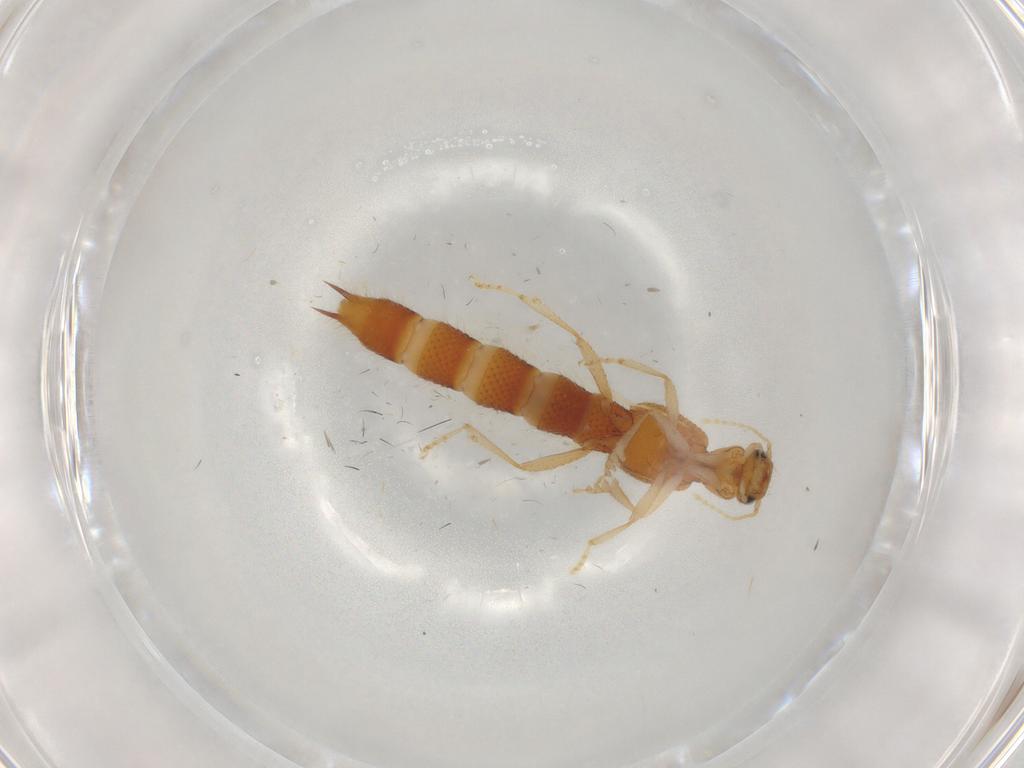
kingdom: Animalia
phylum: Arthropoda
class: Insecta
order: Coleoptera
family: Staphylinidae
